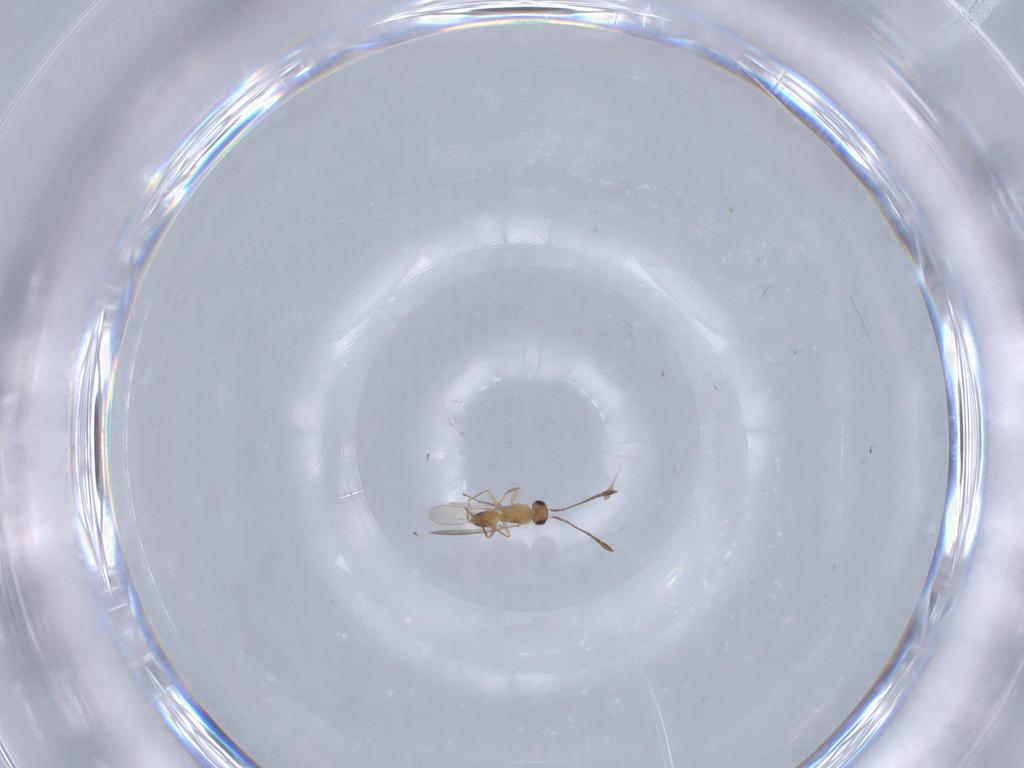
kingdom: Animalia
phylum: Arthropoda
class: Insecta
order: Hymenoptera
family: Mymaridae
